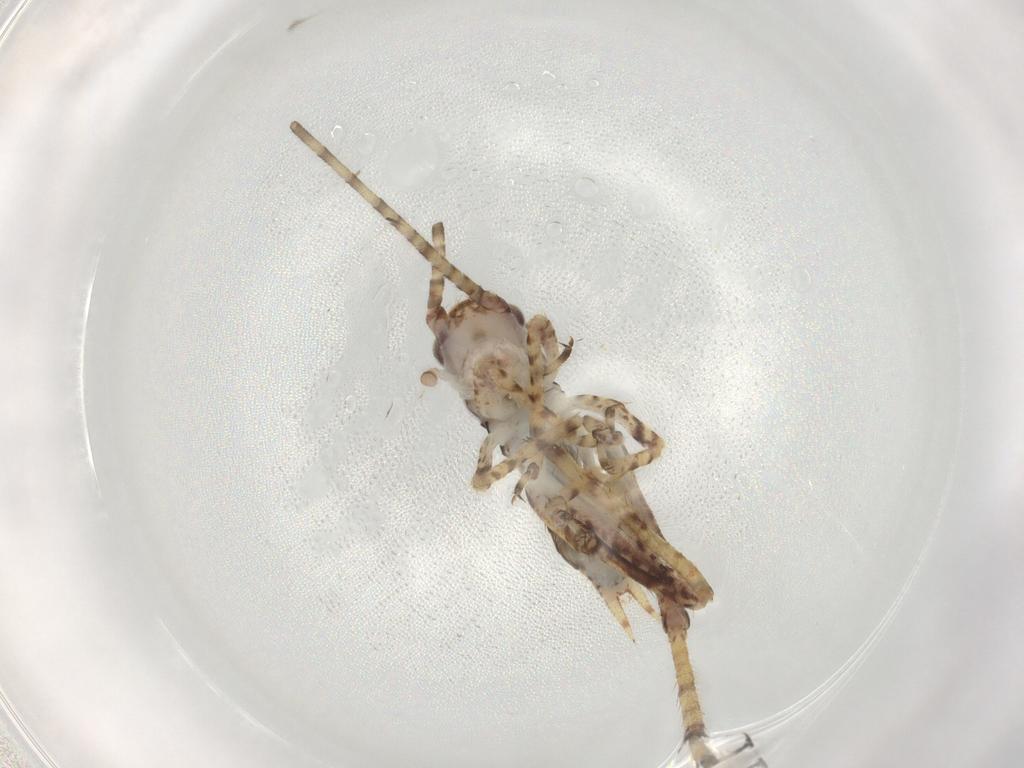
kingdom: Animalia
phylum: Arthropoda
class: Insecta
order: Orthoptera
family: Gryllidae
